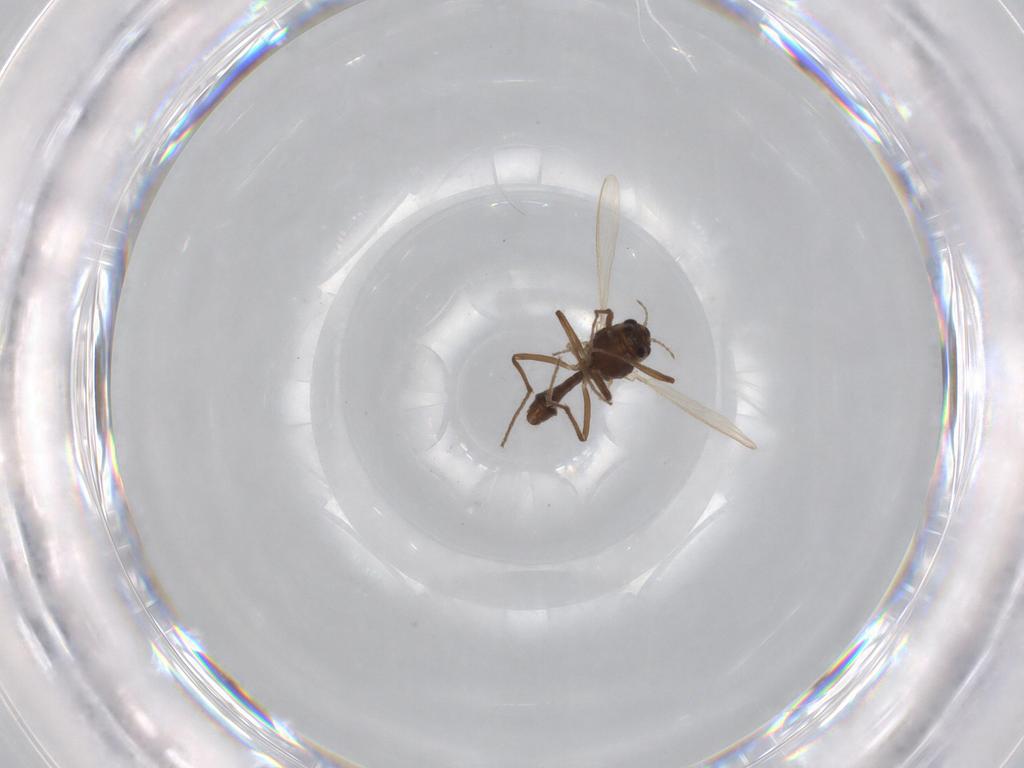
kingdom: Animalia
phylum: Arthropoda
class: Insecta
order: Diptera
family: Chironomidae
